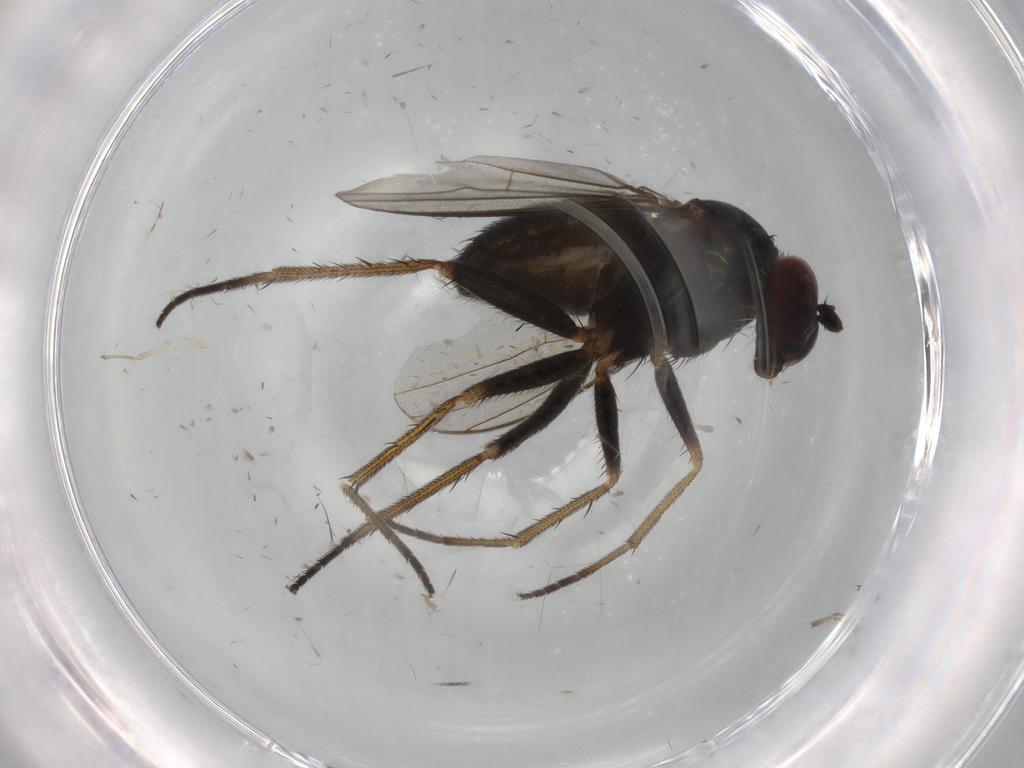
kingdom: Animalia
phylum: Arthropoda
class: Insecta
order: Diptera
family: Dolichopodidae
